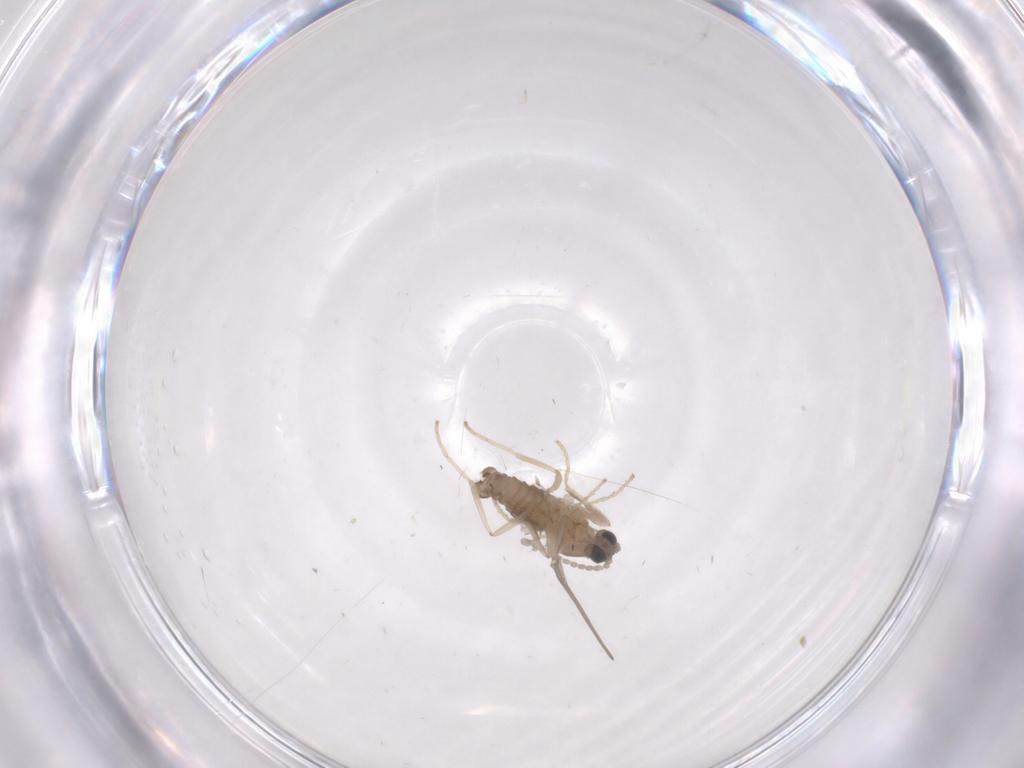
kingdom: Animalia
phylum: Arthropoda
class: Insecta
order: Diptera
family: Cecidomyiidae
